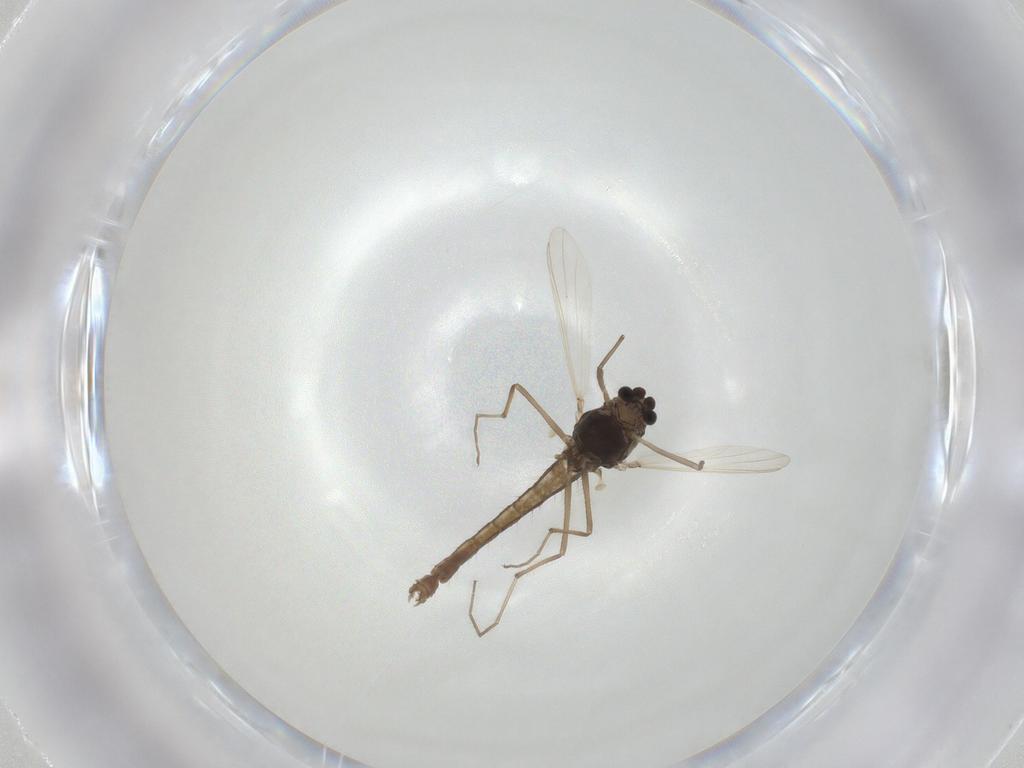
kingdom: Animalia
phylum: Arthropoda
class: Insecta
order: Diptera
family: Chironomidae
